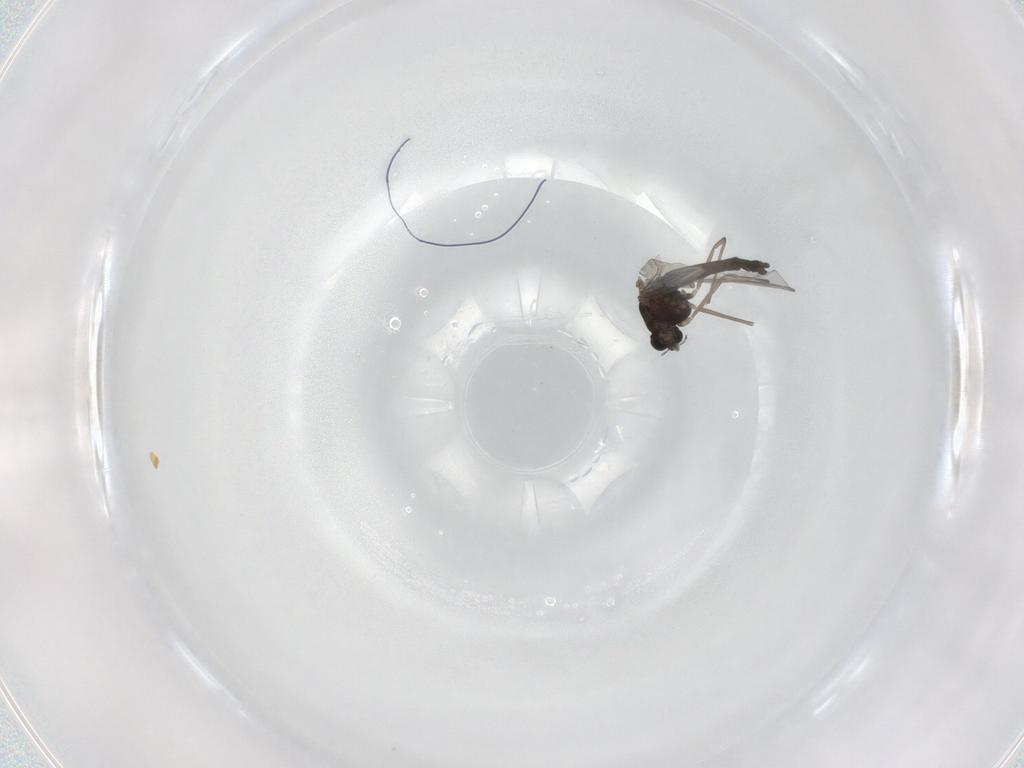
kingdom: Animalia
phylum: Arthropoda
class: Insecta
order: Diptera
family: Chironomidae
